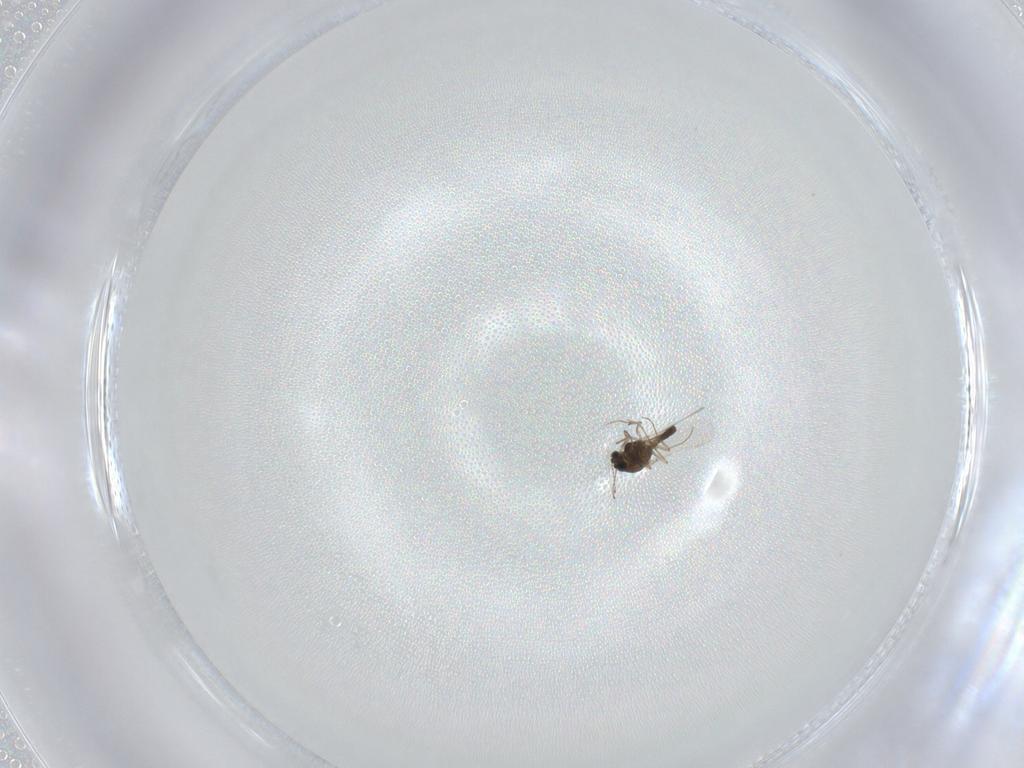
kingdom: Animalia
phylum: Arthropoda
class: Insecta
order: Diptera
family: Chironomidae
